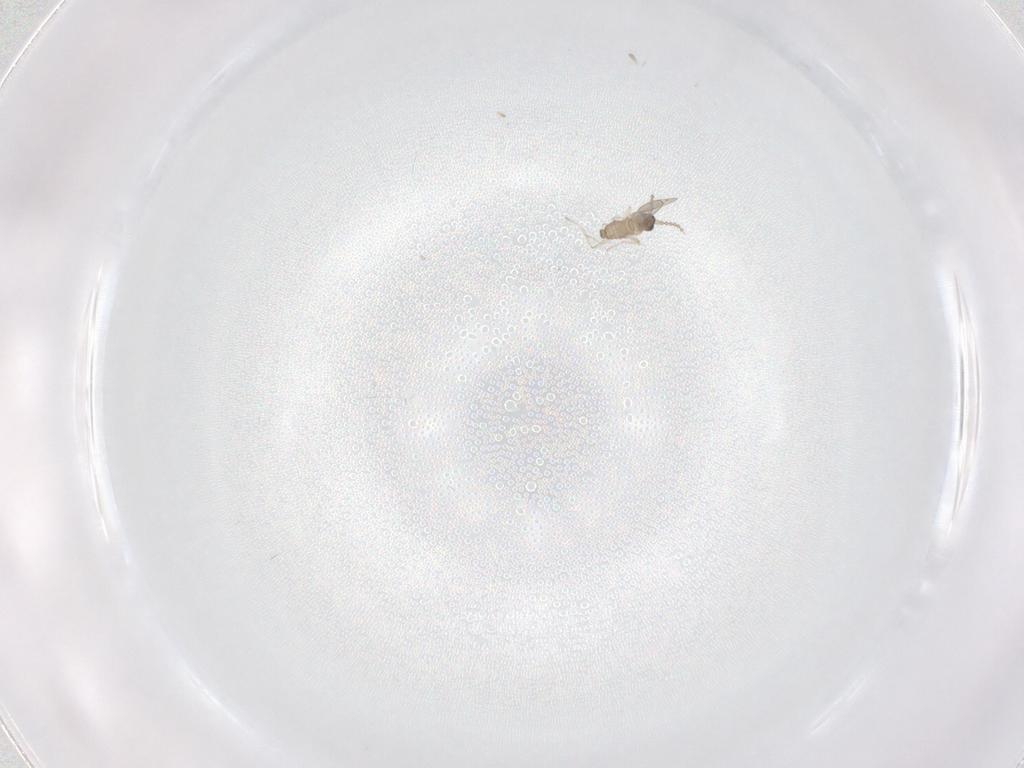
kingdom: Animalia
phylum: Arthropoda
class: Insecta
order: Diptera
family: Cecidomyiidae
